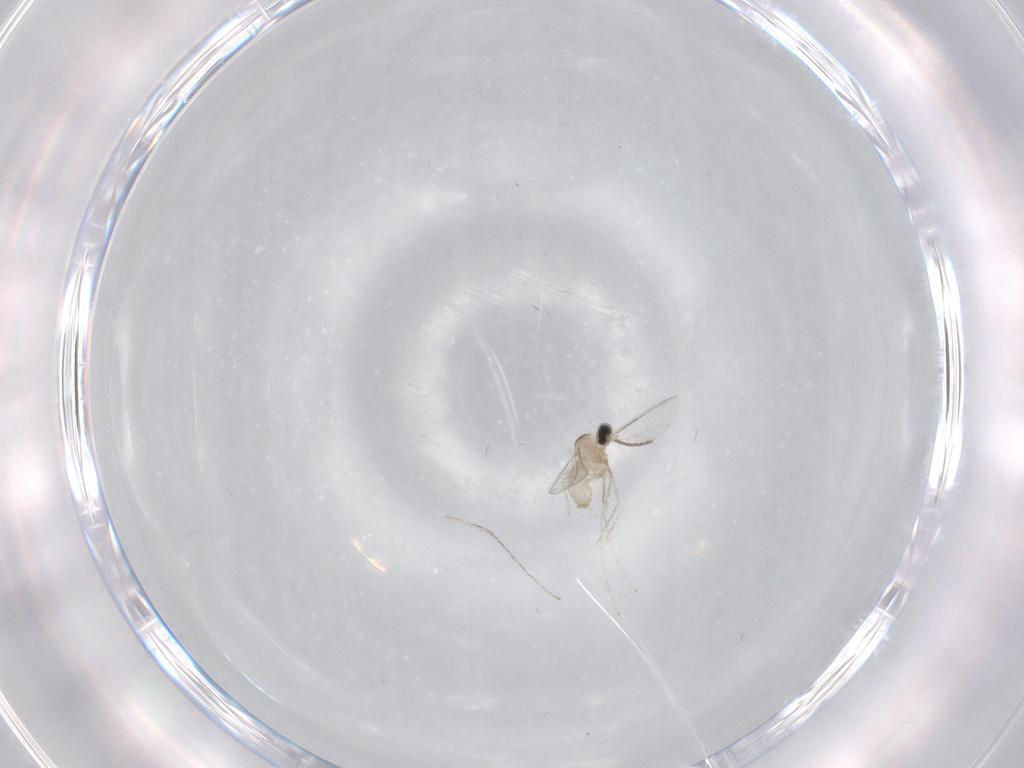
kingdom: Animalia
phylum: Arthropoda
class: Insecta
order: Diptera
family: Cecidomyiidae
